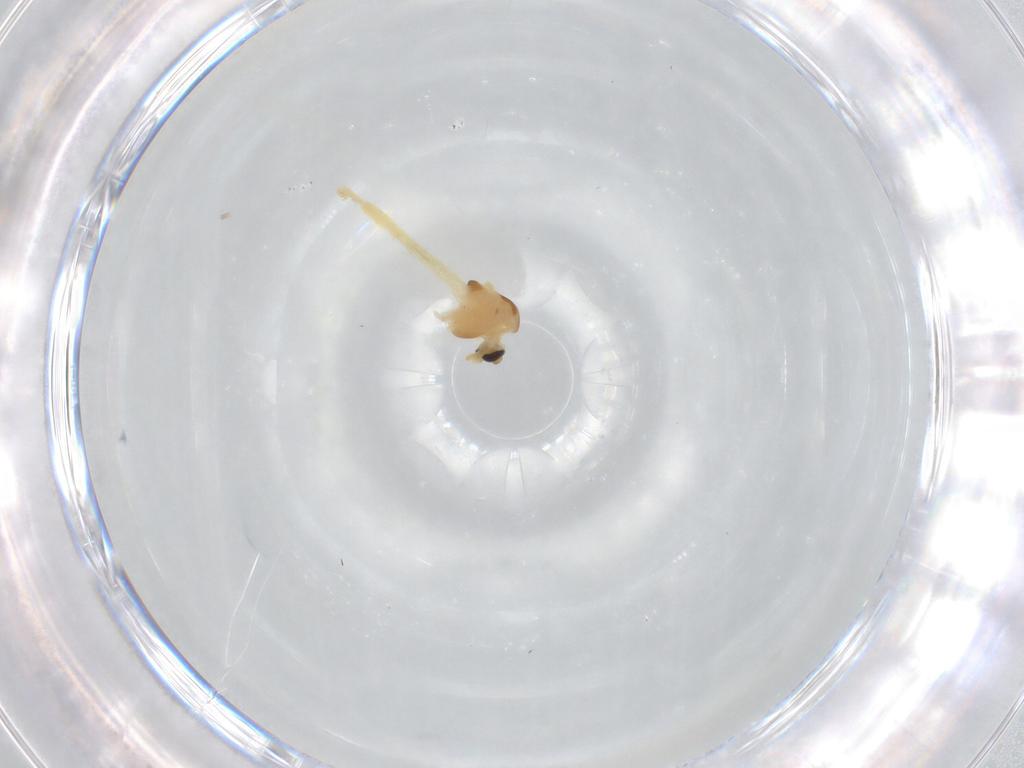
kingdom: Animalia
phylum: Arthropoda
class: Insecta
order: Diptera
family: Chironomidae
